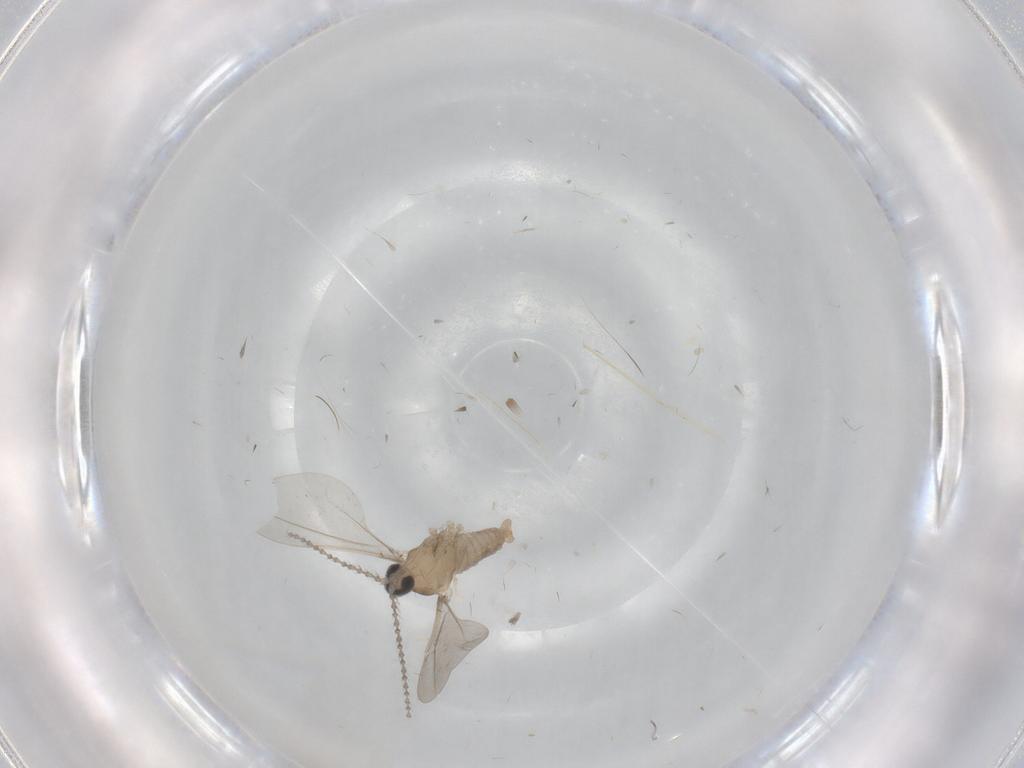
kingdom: Animalia
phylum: Arthropoda
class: Insecta
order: Diptera
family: Chironomidae
